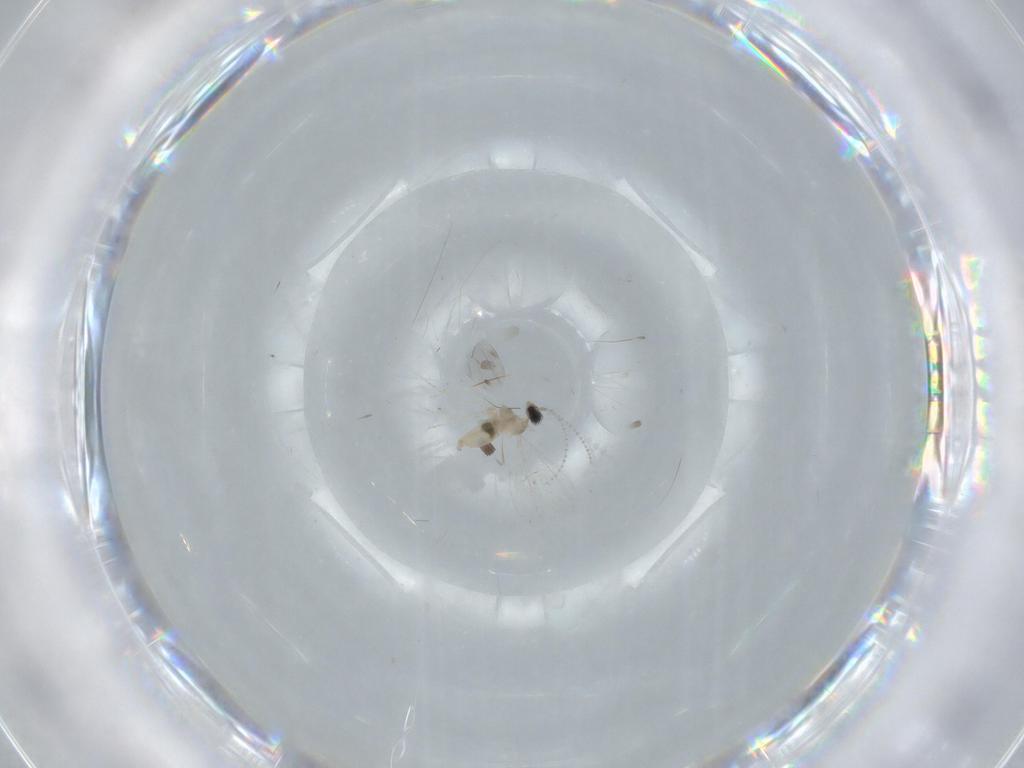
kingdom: Animalia
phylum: Arthropoda
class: Insecta
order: Diptera
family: Cecidomyiidae
